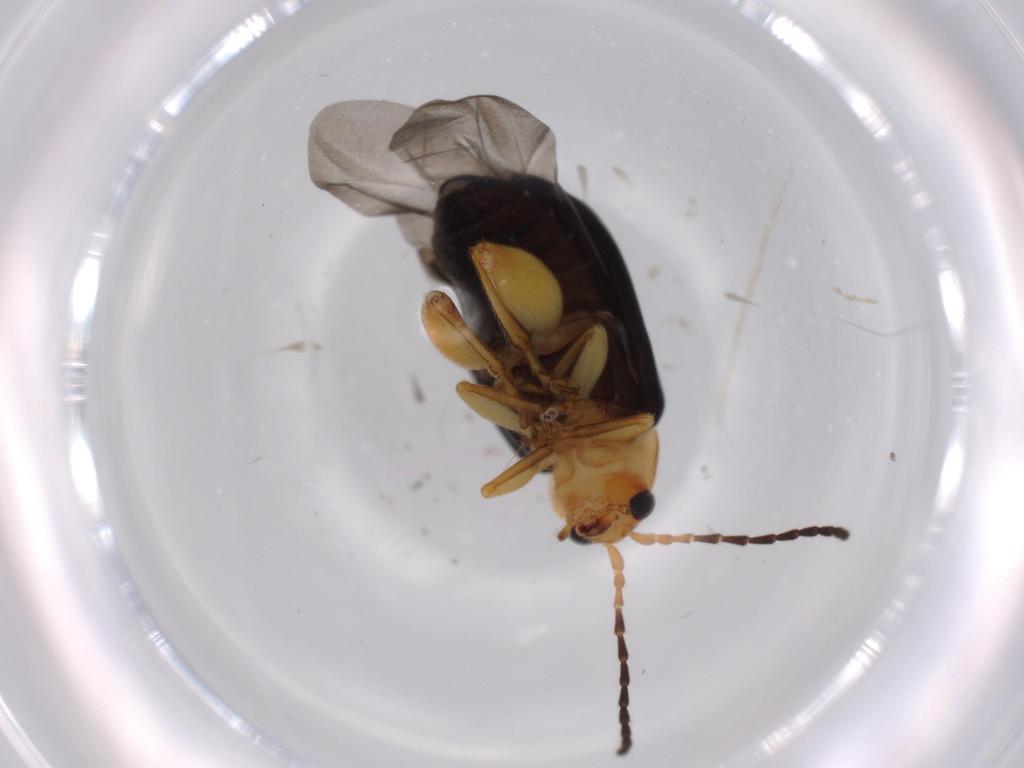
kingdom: Animalia
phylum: Arthropoda
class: Insecta
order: Coleoptera
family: Chrysomelidae
